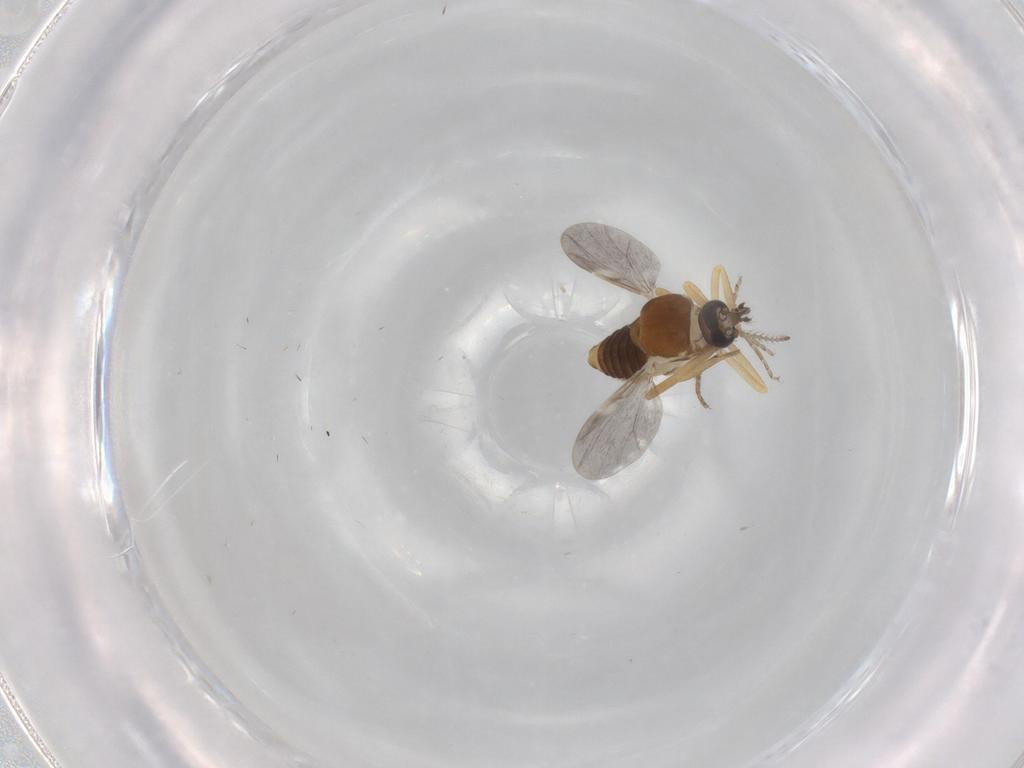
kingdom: Animalia
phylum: Arthropoda
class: Insecta
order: Diptera
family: Ceratopogonidae
